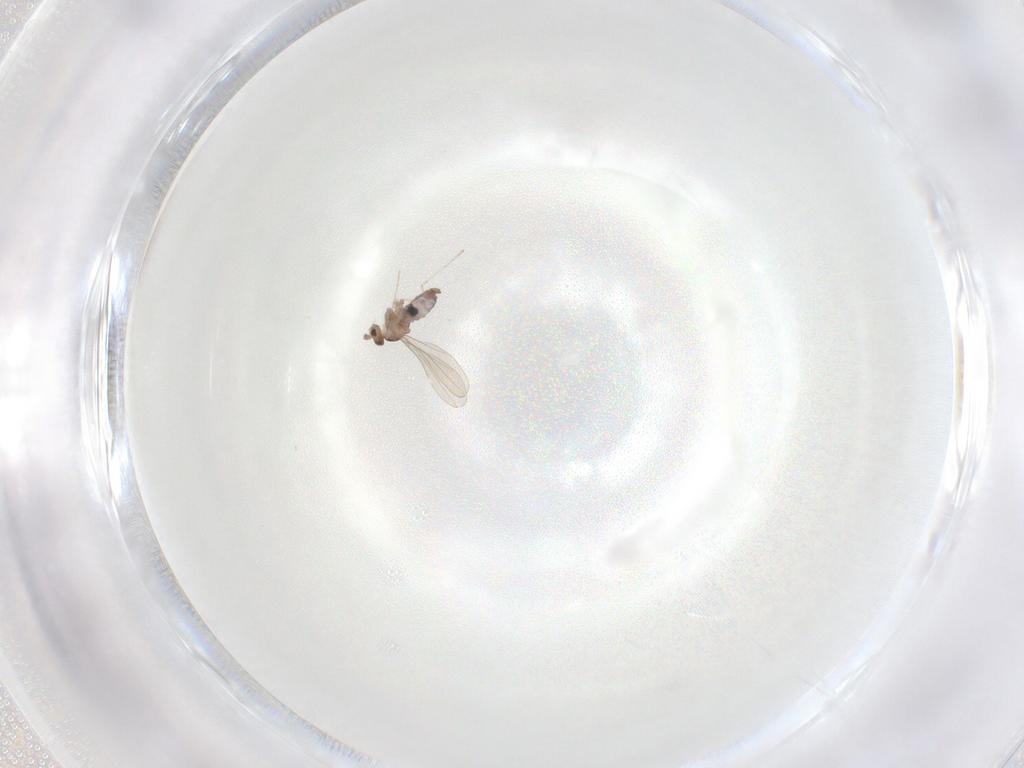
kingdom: Animalia
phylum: Arthropoda
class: Insecta
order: Diptera
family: Cecidomyiidae
